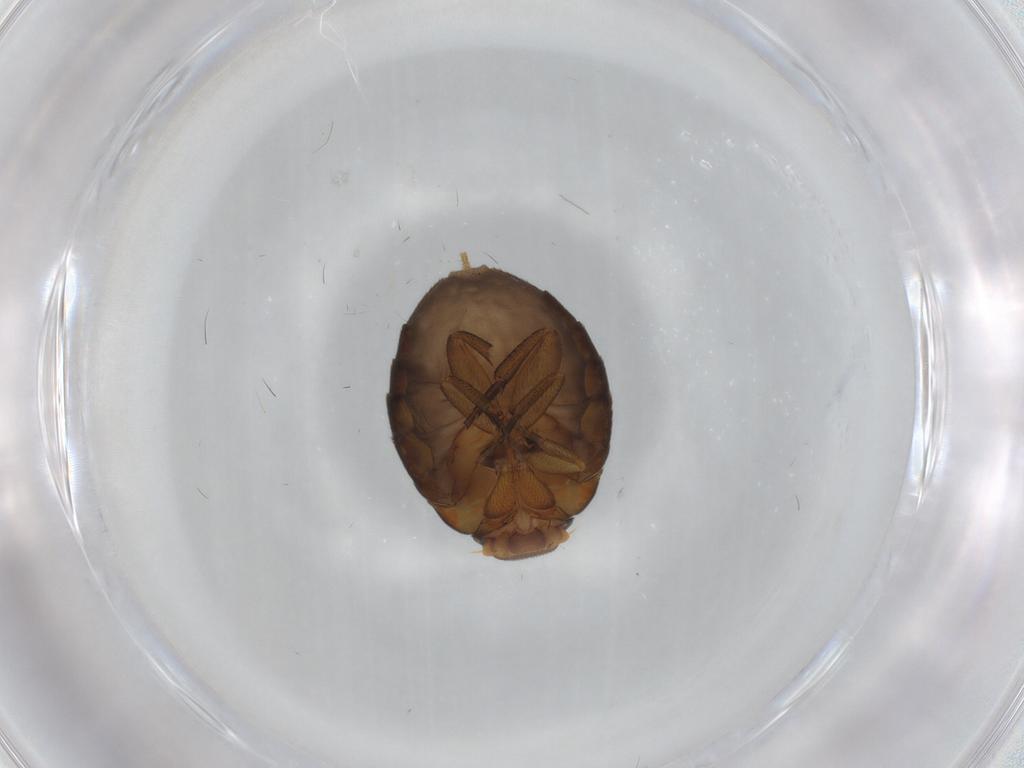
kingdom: Animalia
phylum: Arthropoda
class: Insecta
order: Diptera
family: Phoridae
